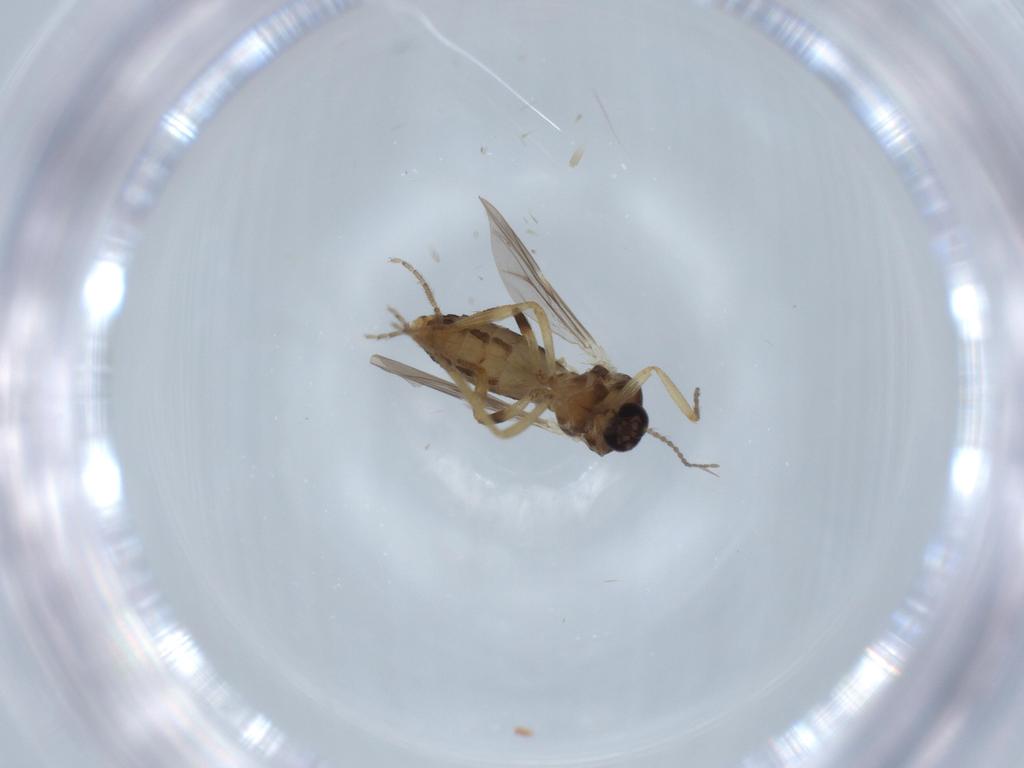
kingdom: Animalia
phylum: Arthropoda
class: Insecta
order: Diptera
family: Ceratopogonidae
